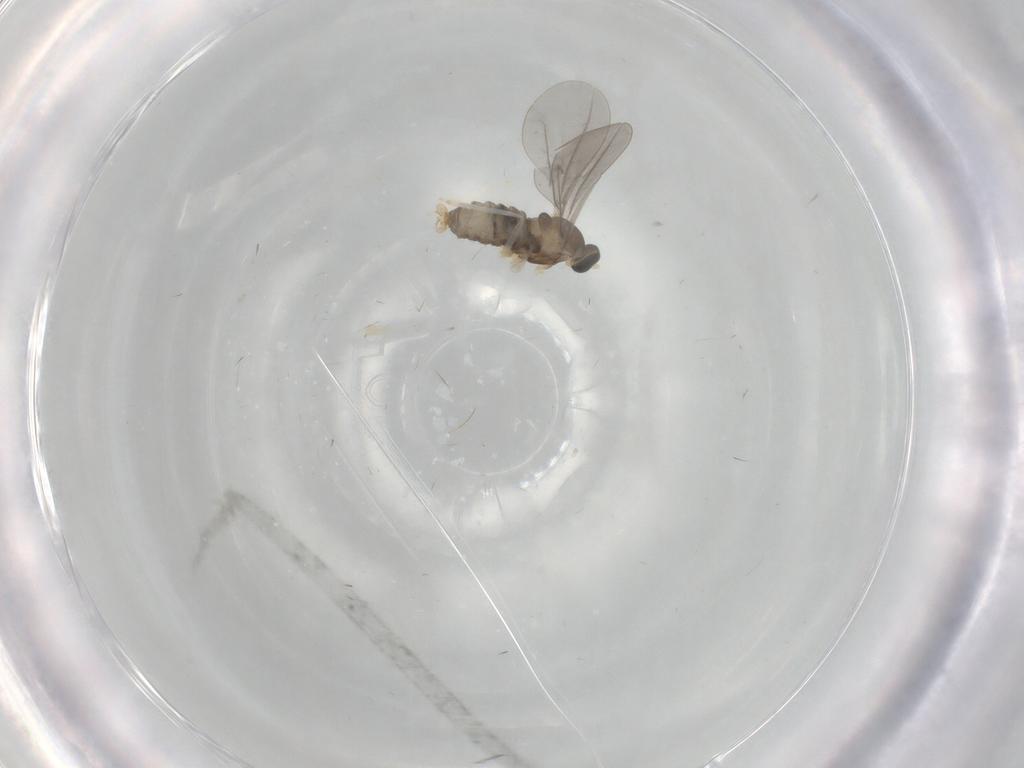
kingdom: Animalia
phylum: Arthropoda
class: Insecta
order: Diptera
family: Cecidomyiidae
